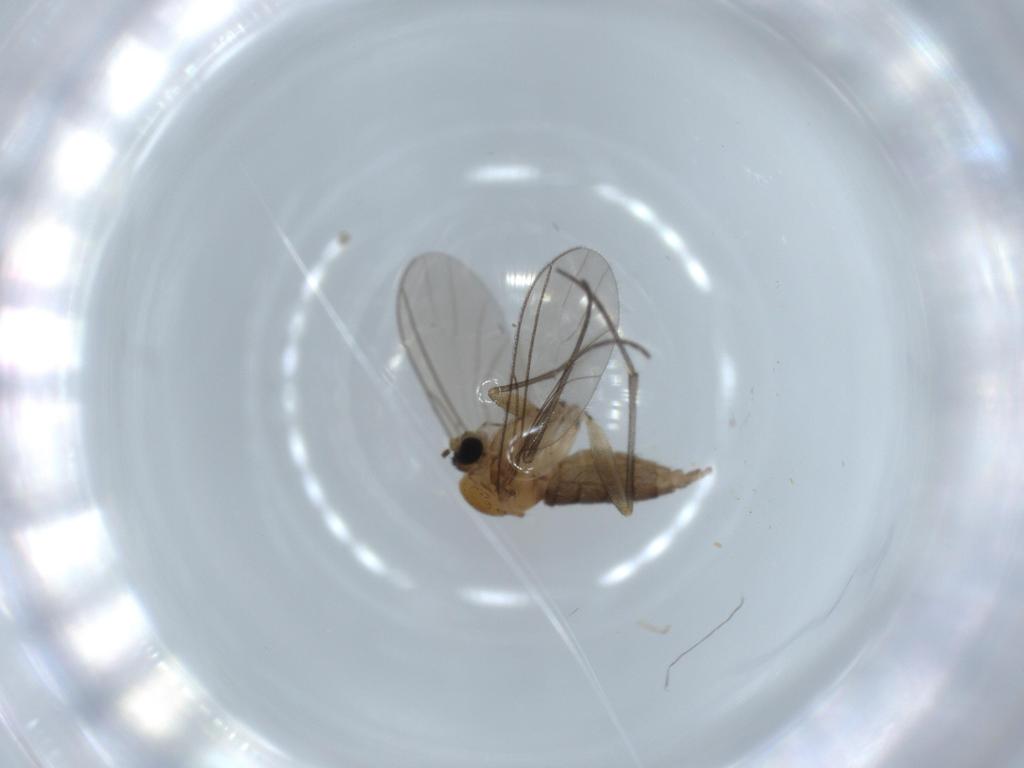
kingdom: Animalia
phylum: Arthropoda
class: Insecta
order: Diptera
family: Sciaridae
